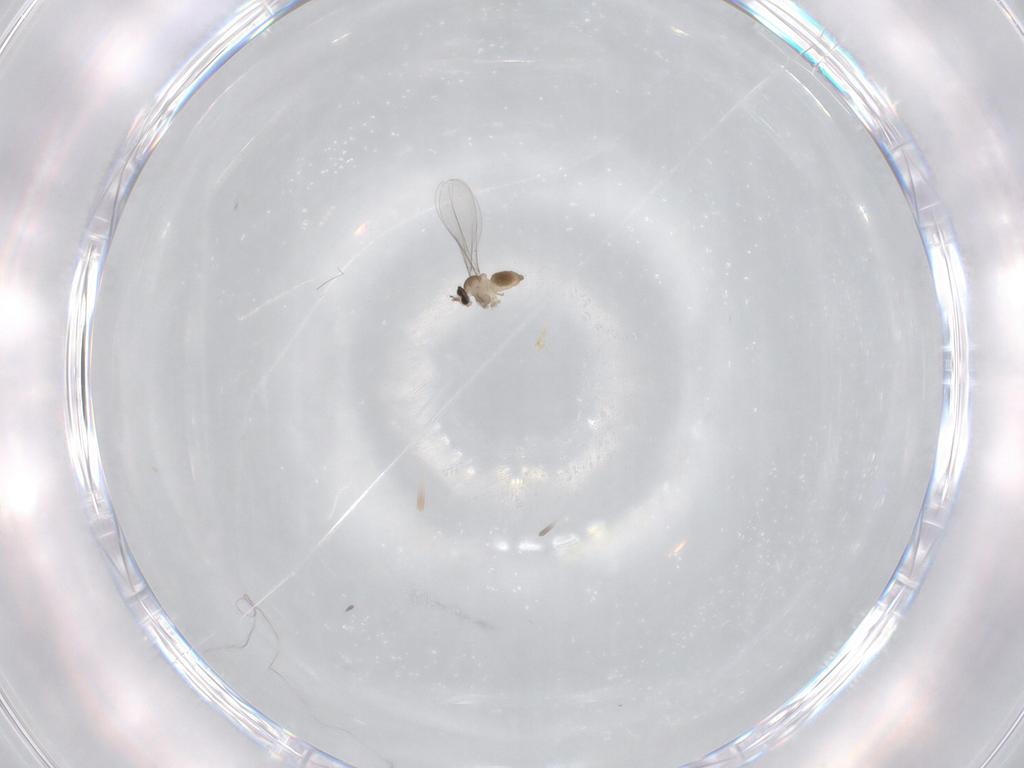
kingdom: Animalia
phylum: Arthropoda
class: Insecta
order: Diptera
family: Cecidomyiidae
